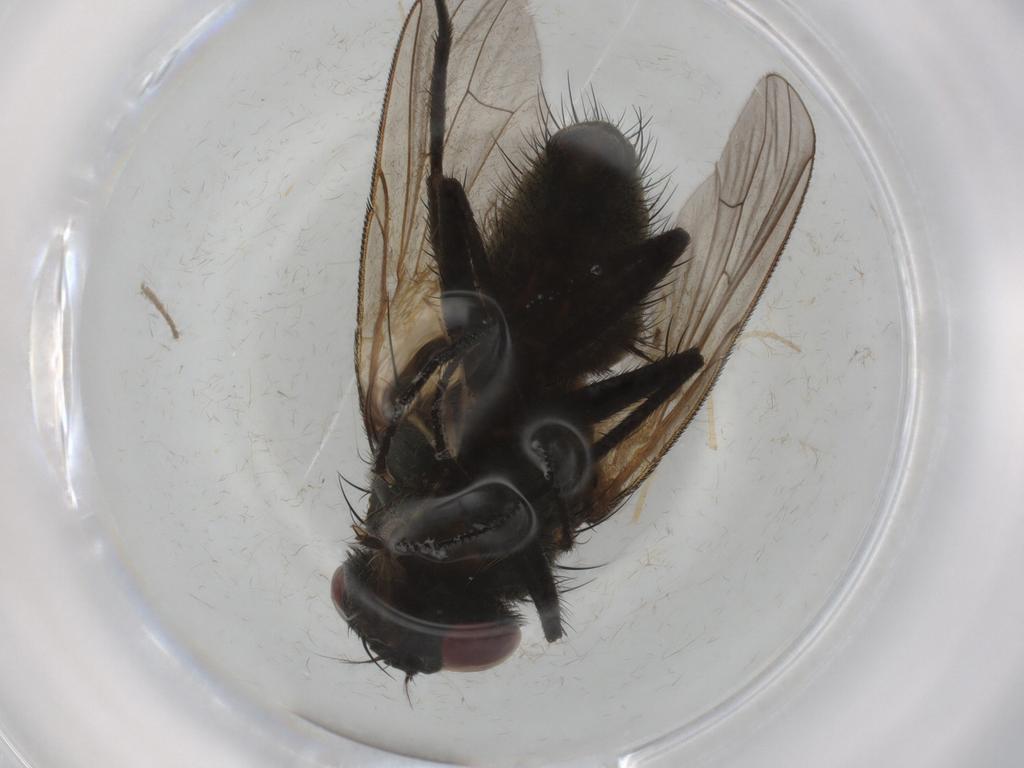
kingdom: Animalia
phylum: Arthropoda
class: Insecta
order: Diptera
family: Muscidae
